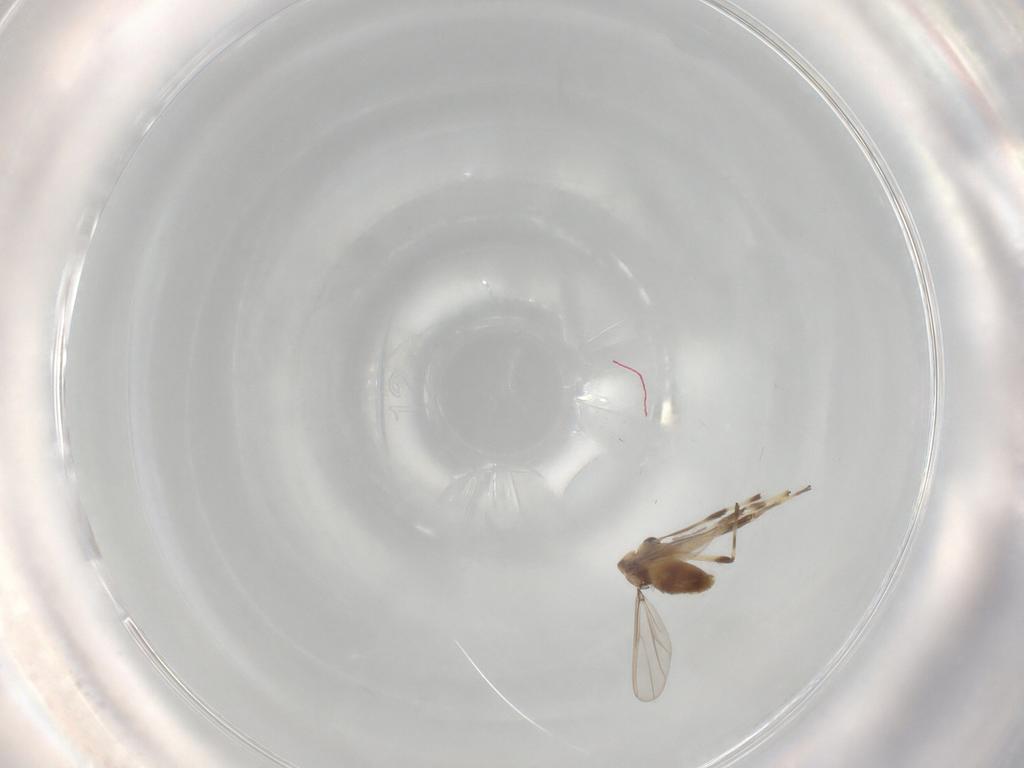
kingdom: Animalia
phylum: Arthropoda
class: Insecta
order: Diptera
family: Chironomidae
